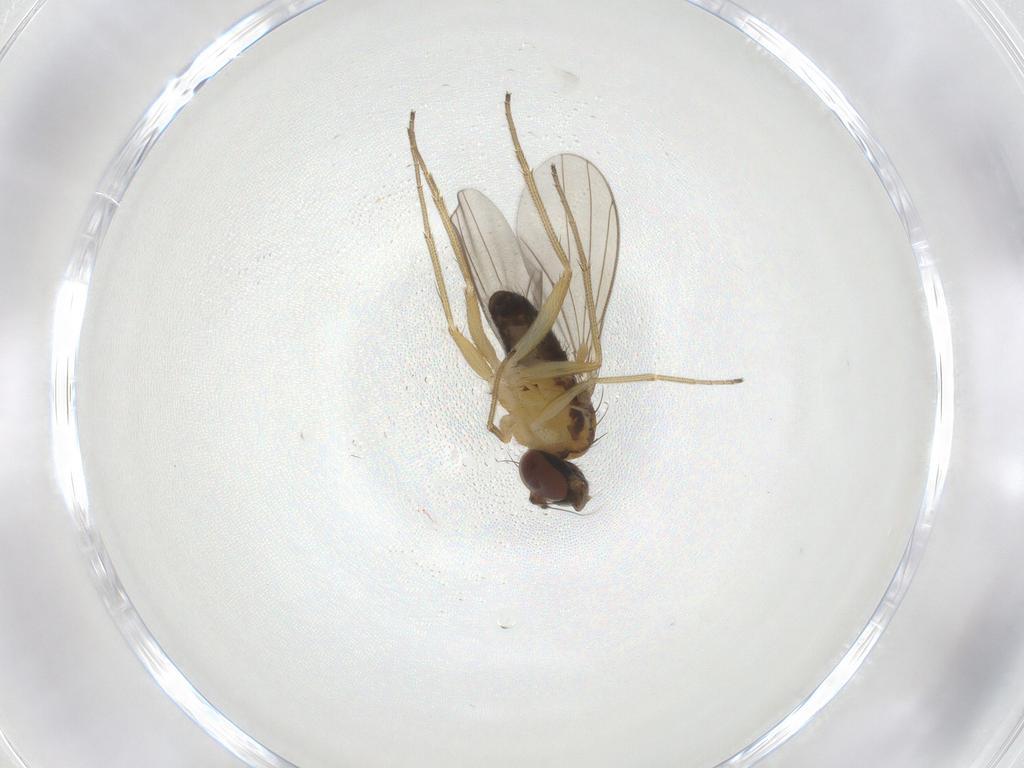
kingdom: Animalia
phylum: Arthropoda
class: Insecta
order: Diptera
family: Dolichopodidae
